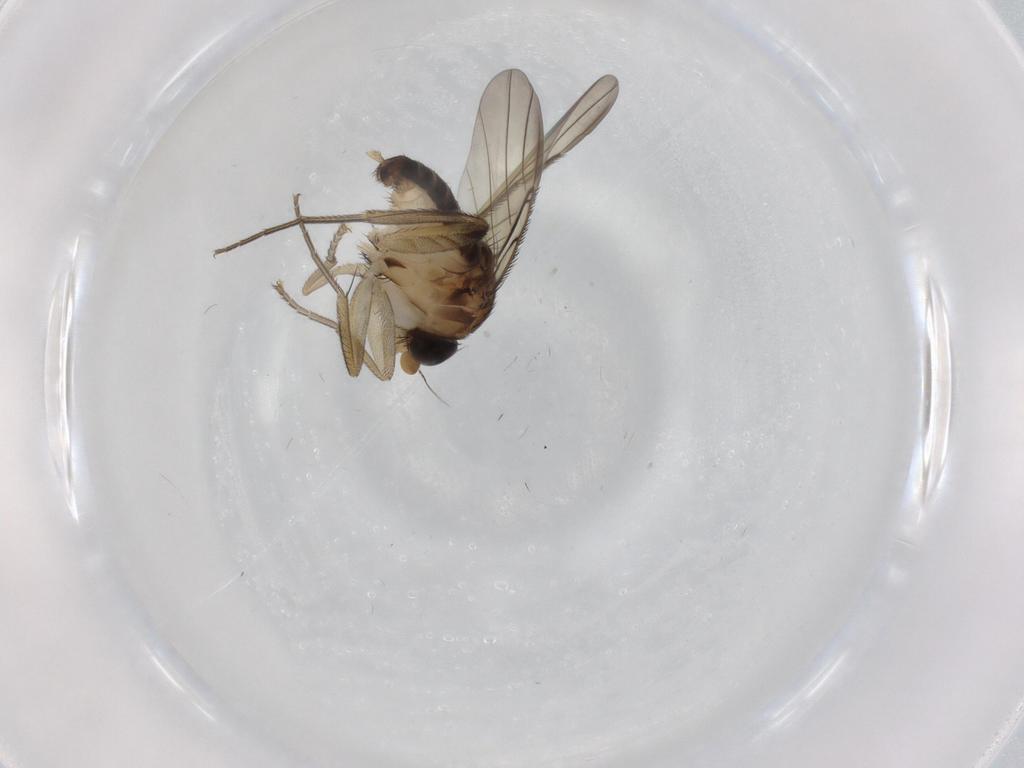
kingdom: Animalia
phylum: Arthropoda
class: Insecta
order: Diptera
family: Phoridae
